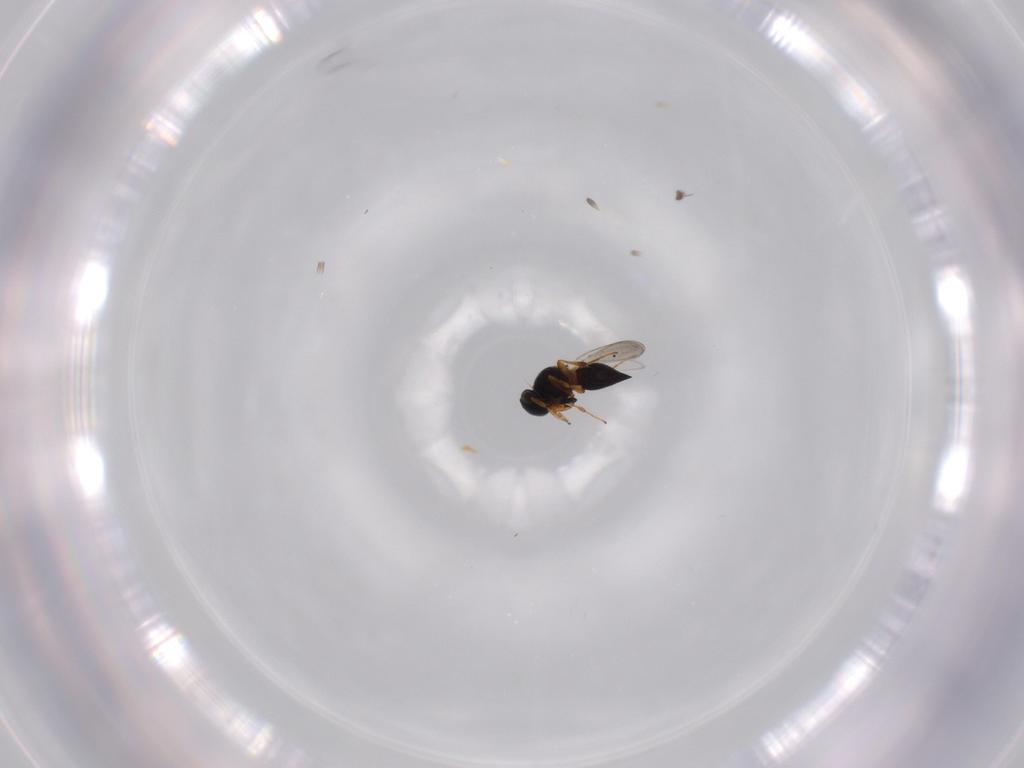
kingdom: Animalia
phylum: Arthropoda
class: Insecta
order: Hymenoptera
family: Platygastridae
